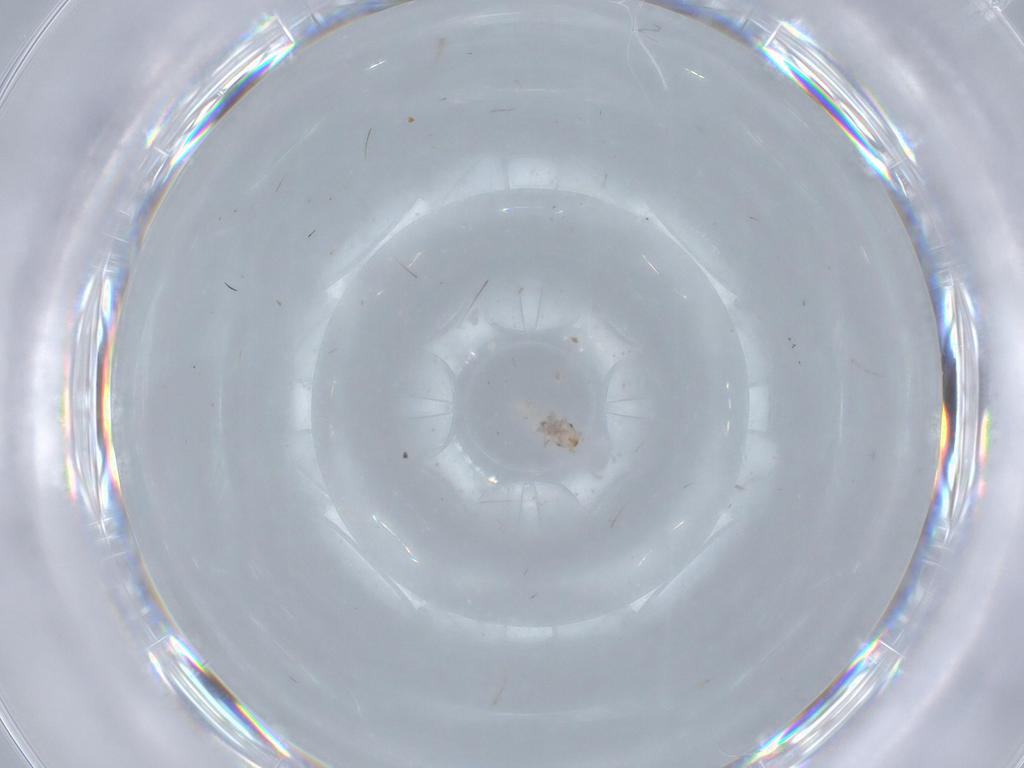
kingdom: Animalia
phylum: Arthropoda
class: Insecta
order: Psocodea
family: Liposcelididae
